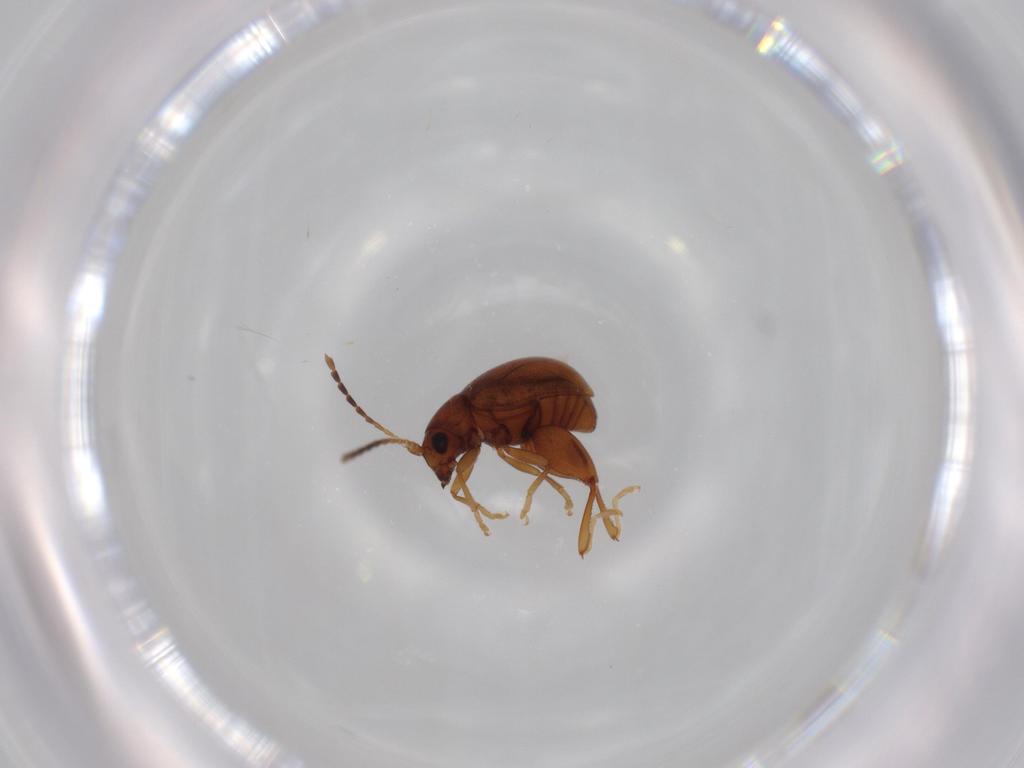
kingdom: Animalia
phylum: Arthropoda
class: Insecta
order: Coleoptera
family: Chrysomelidae
